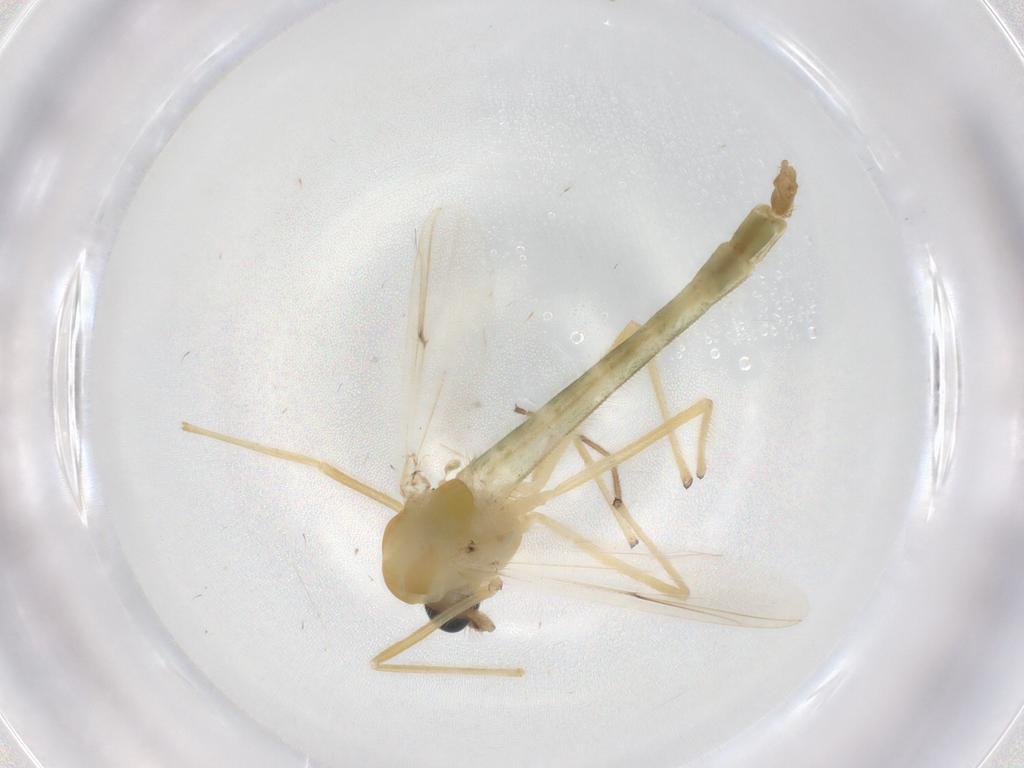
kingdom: Animalia
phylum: Arthropoda
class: Insecta
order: Diptera
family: Chironomidae
